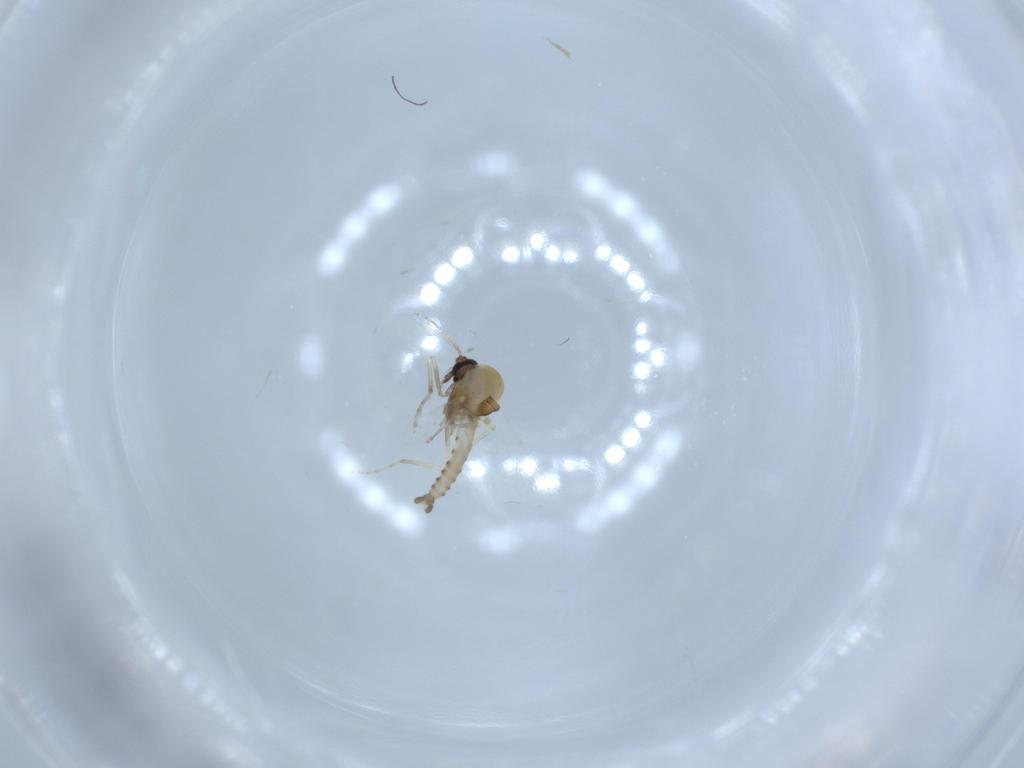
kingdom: Animalia
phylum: Arthropoda
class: Insecta
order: Diptera
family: Ceratopogonidae
